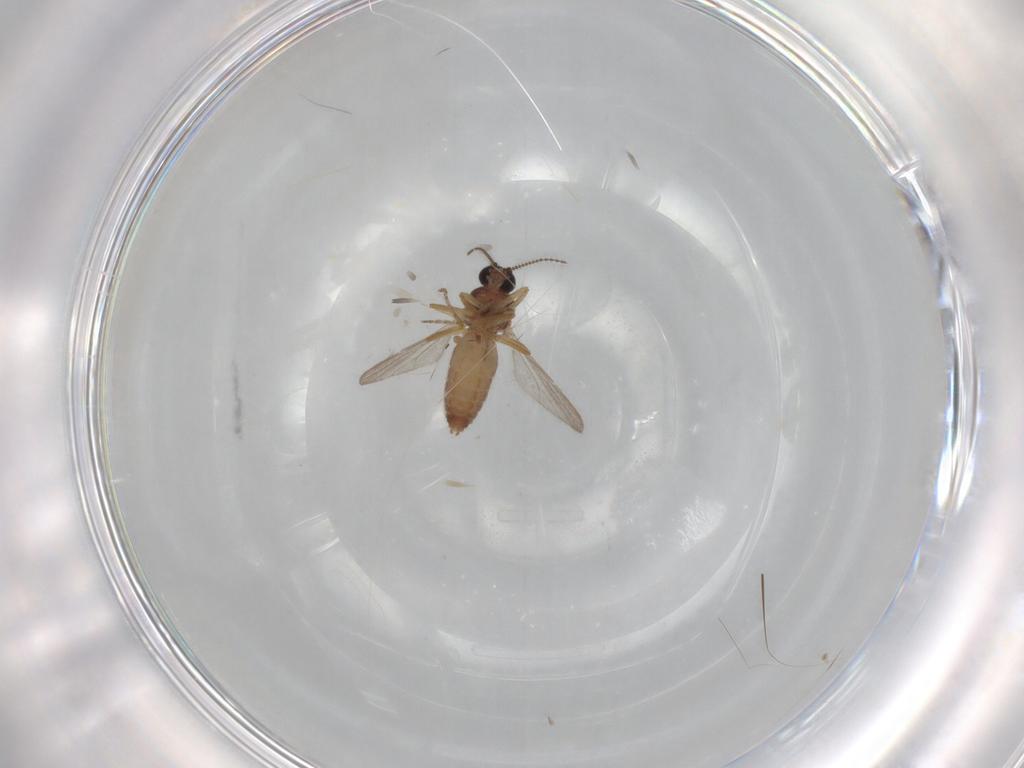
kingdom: Animalia
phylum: Arthropoda
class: Insecta
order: Diptera
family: Ceratopogonidae
